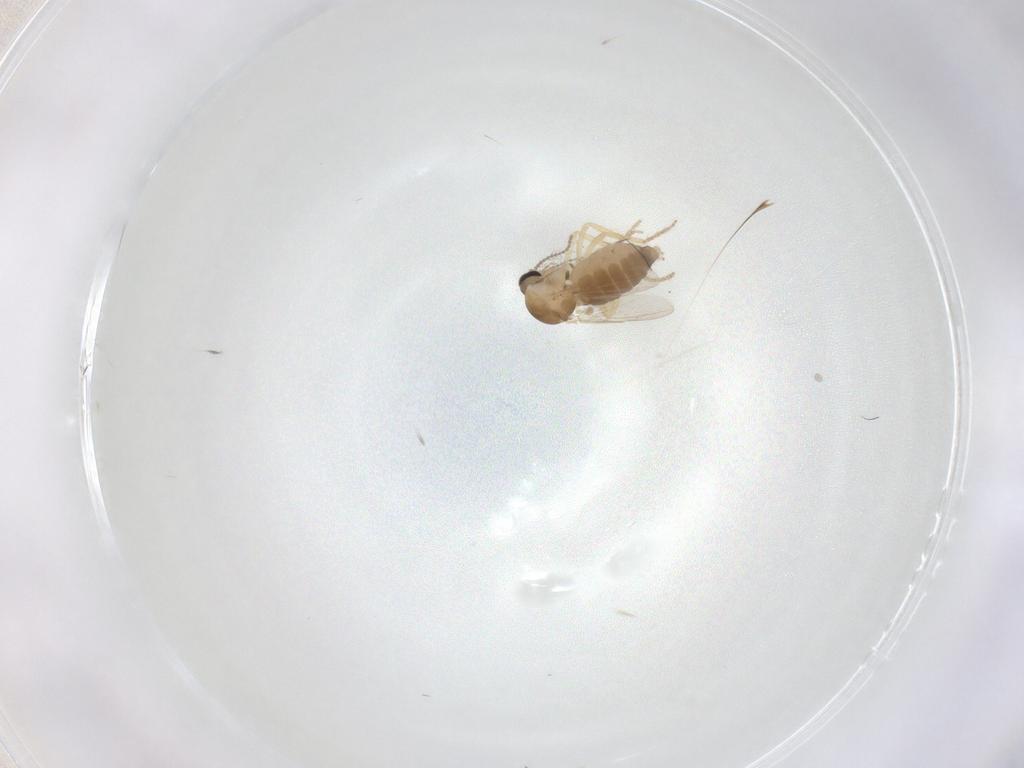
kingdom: Animalia
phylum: Arthropoda
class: Insecta
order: Diptera
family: Ceratopogonidae
